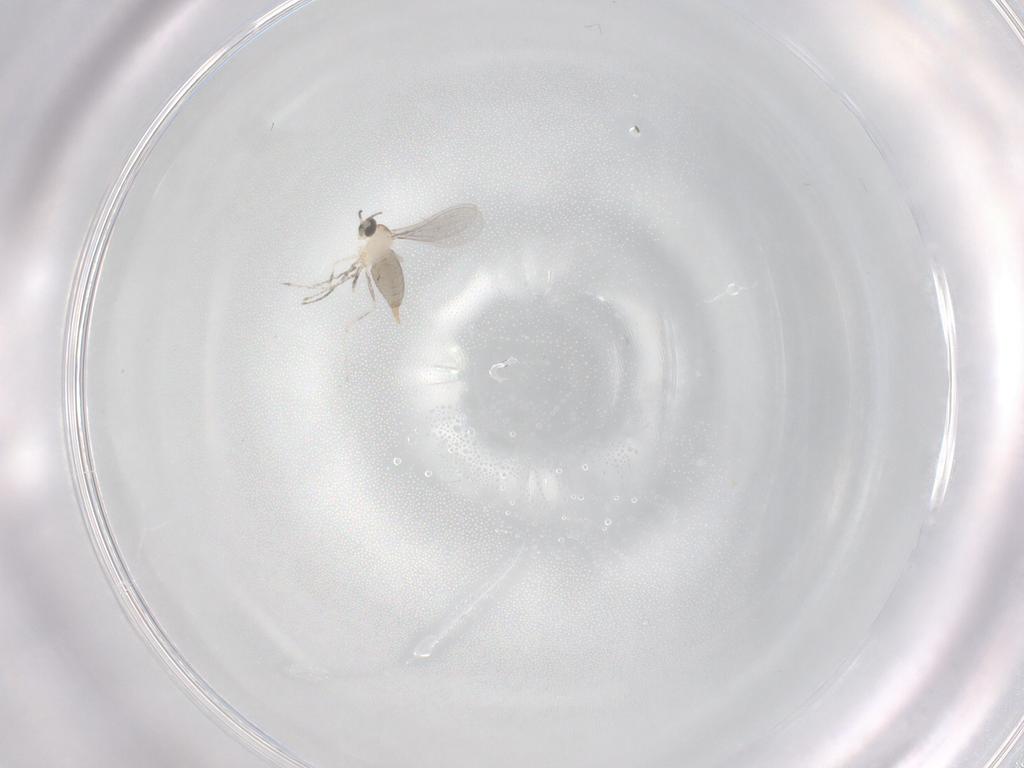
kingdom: Animalia
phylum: Arthropoda
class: Insecta
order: Diptera
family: Cecidomyiidae
